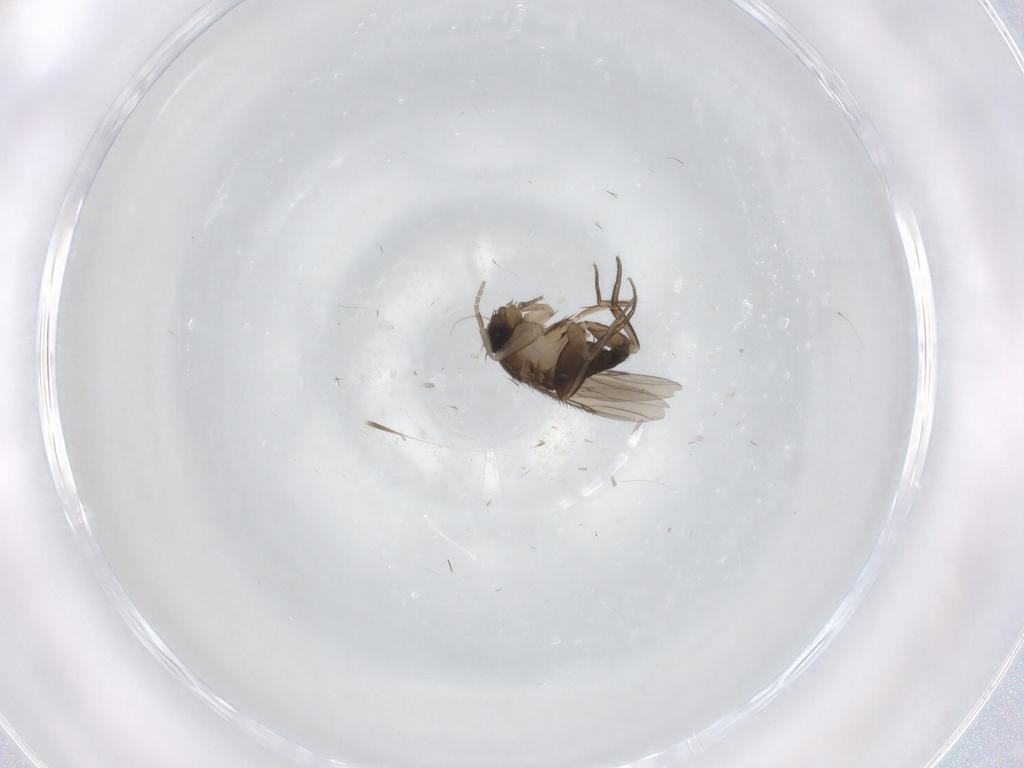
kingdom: Animalia
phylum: Arthropoda
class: Insecta
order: Diptera
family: Phoridae
